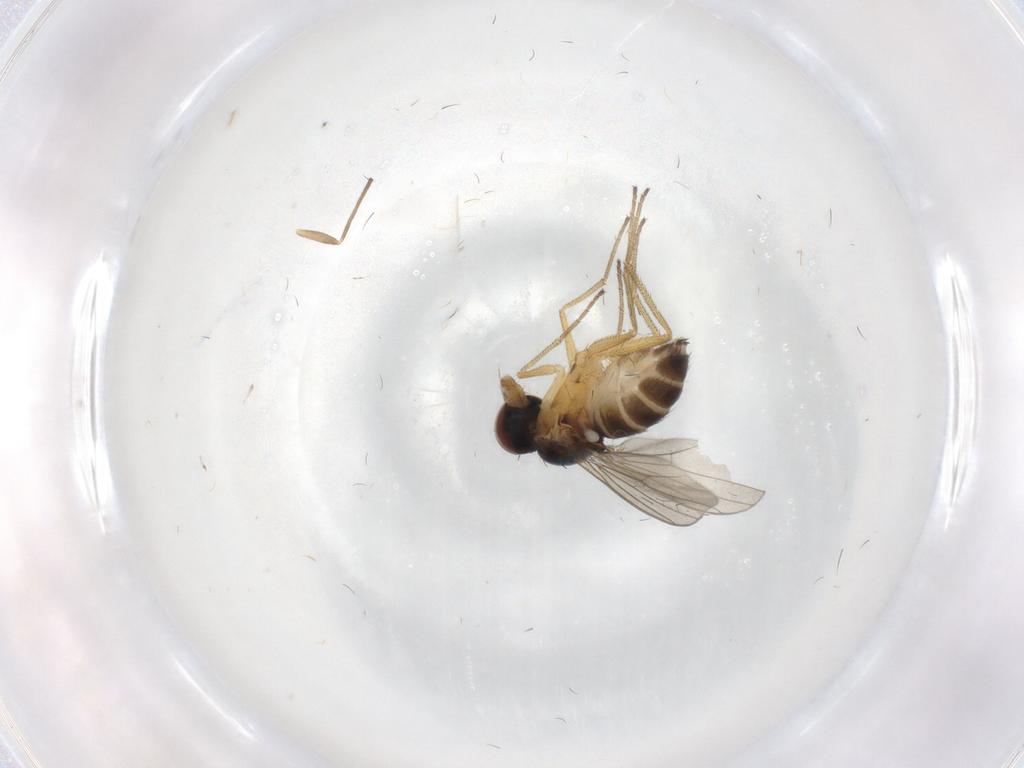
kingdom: Animalia
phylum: Arthropoda
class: Insecta
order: Diptera
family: Dolichopodidae
